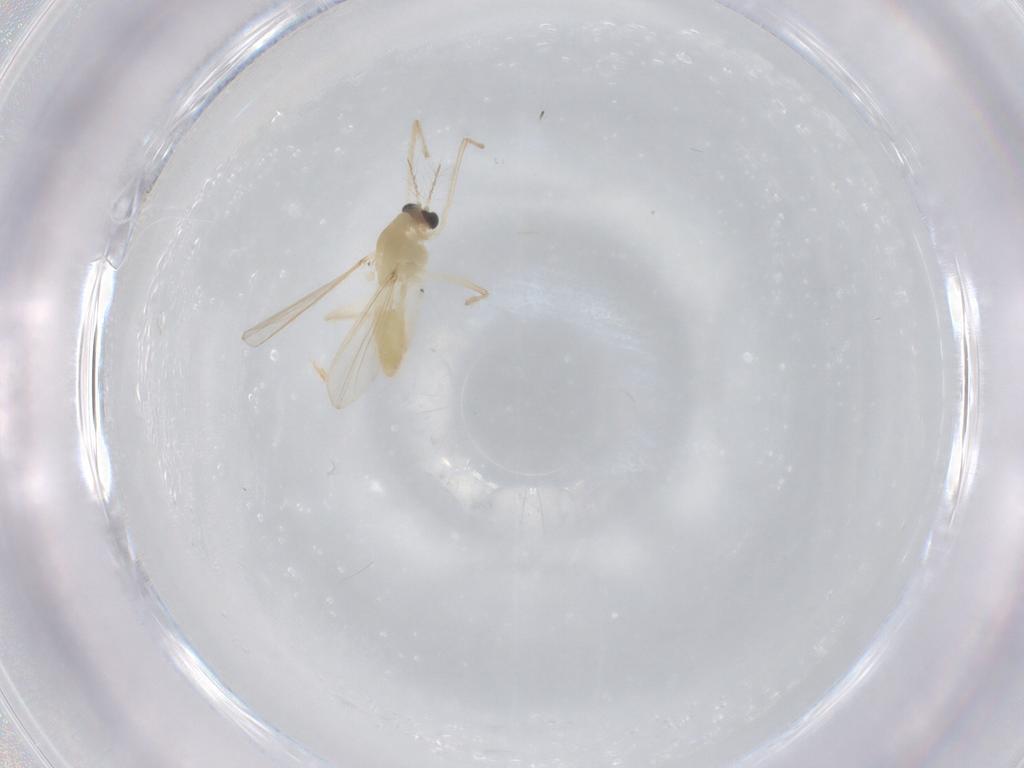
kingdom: Animalia
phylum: Arthropoda
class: Insecta
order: Diptera
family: Chironomidae
